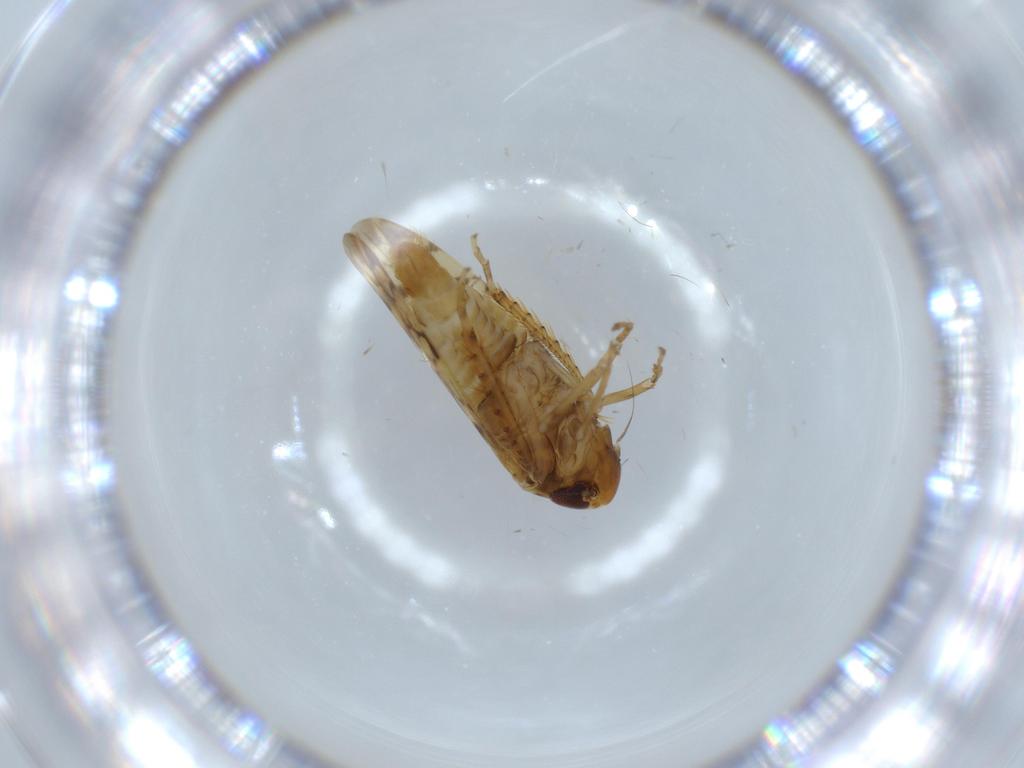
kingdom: Animalia
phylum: Arthropoda
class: Insecta
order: Hemiptera
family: Cicadellidae
